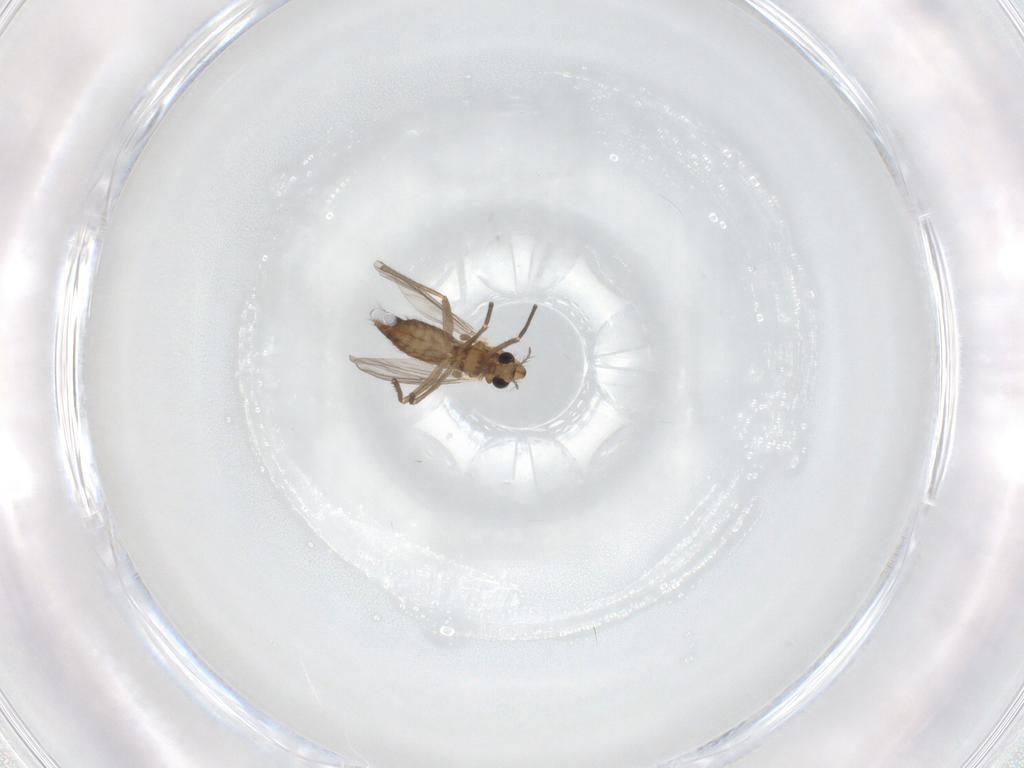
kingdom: Animalia
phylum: Arthropoda
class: Insecta
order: Diptera
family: Chironomidae
